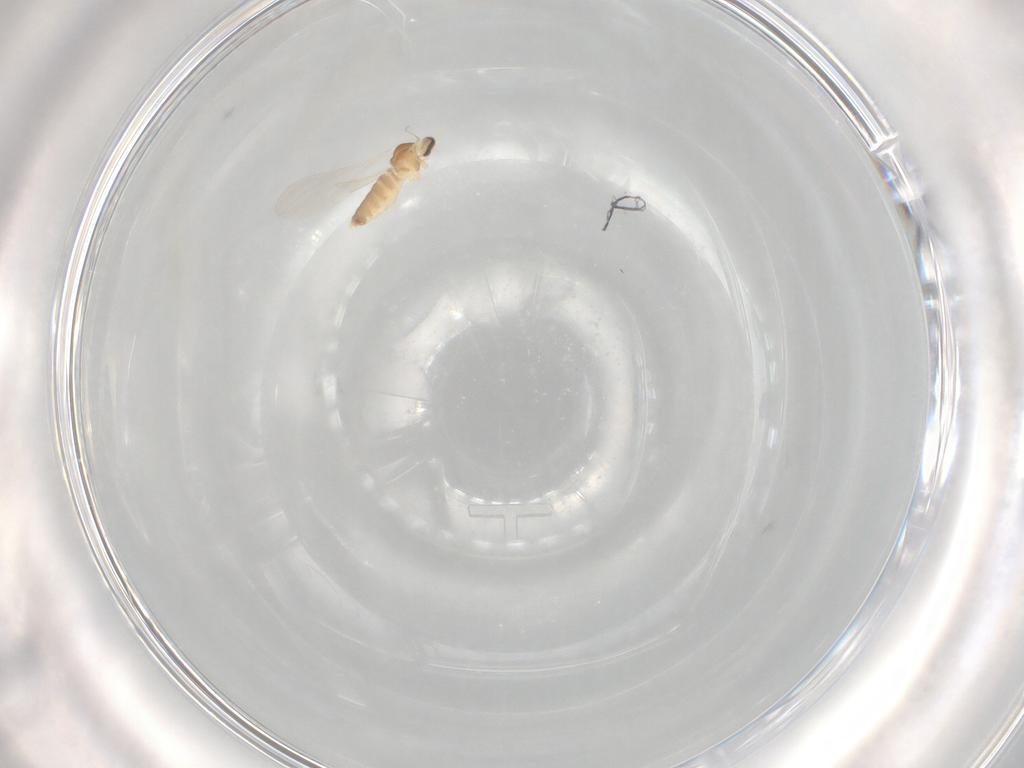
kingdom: Animalia
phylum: Arthropoda
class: Insecta
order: Diptera
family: Cecidomyiidae
